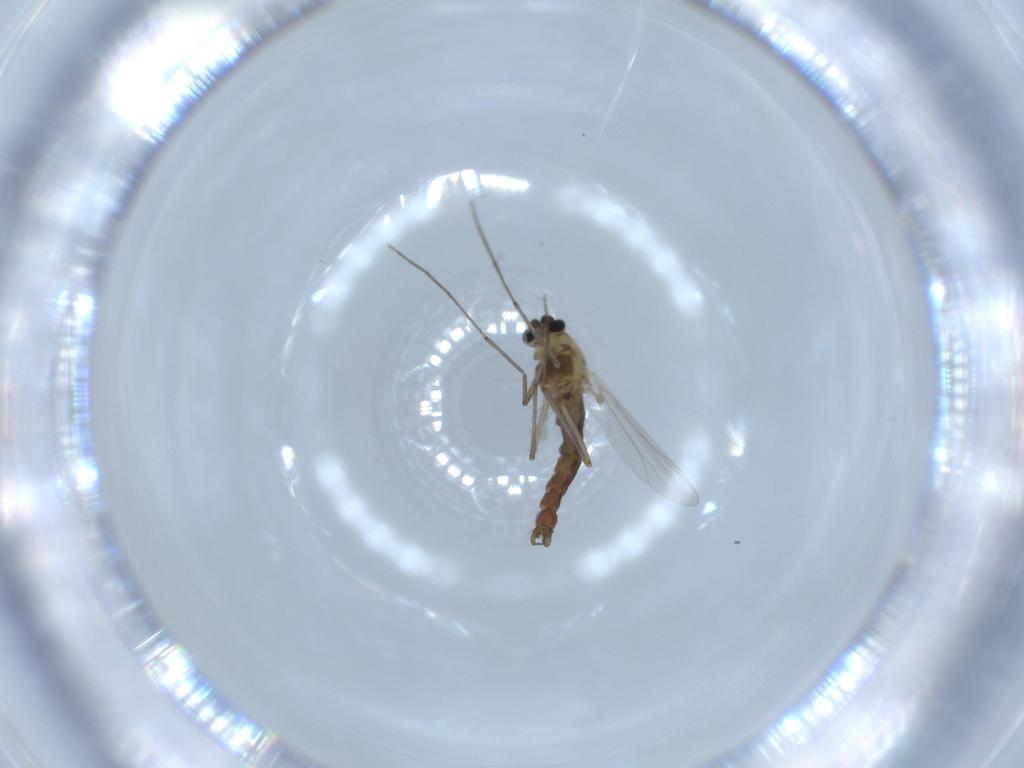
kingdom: Animalia
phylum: Arthropoda
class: Insecta
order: Diptera
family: Chironomidae
